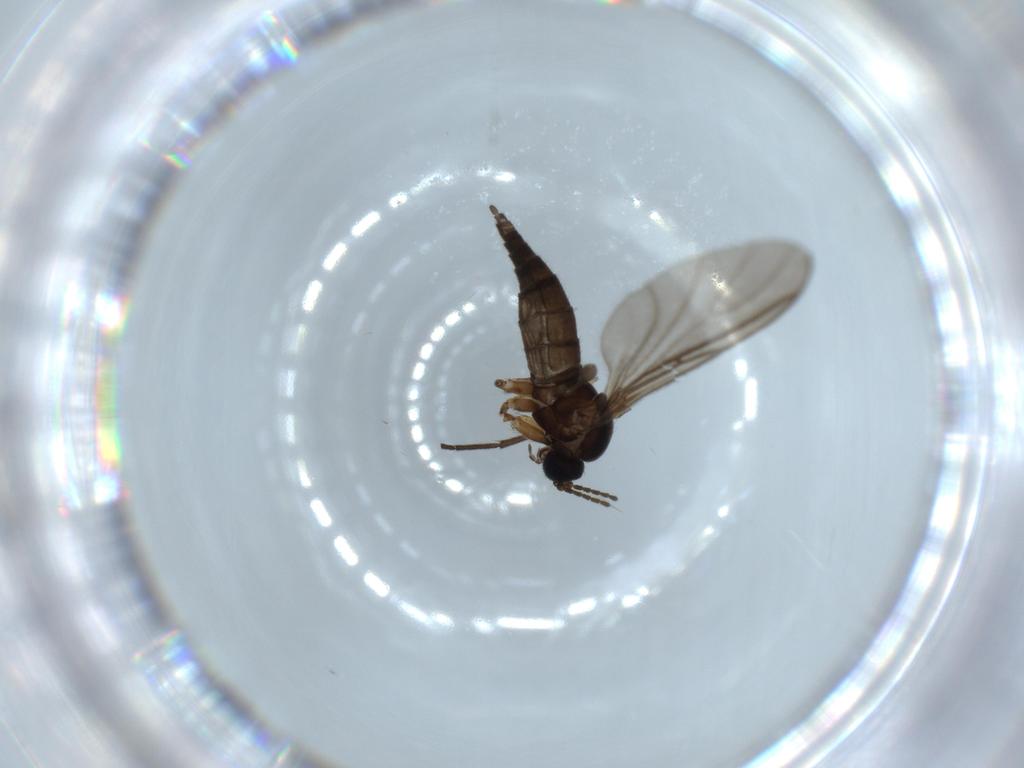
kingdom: Animalia
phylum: Arthropoda
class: Insecta
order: Diptera
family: Sciaridae
